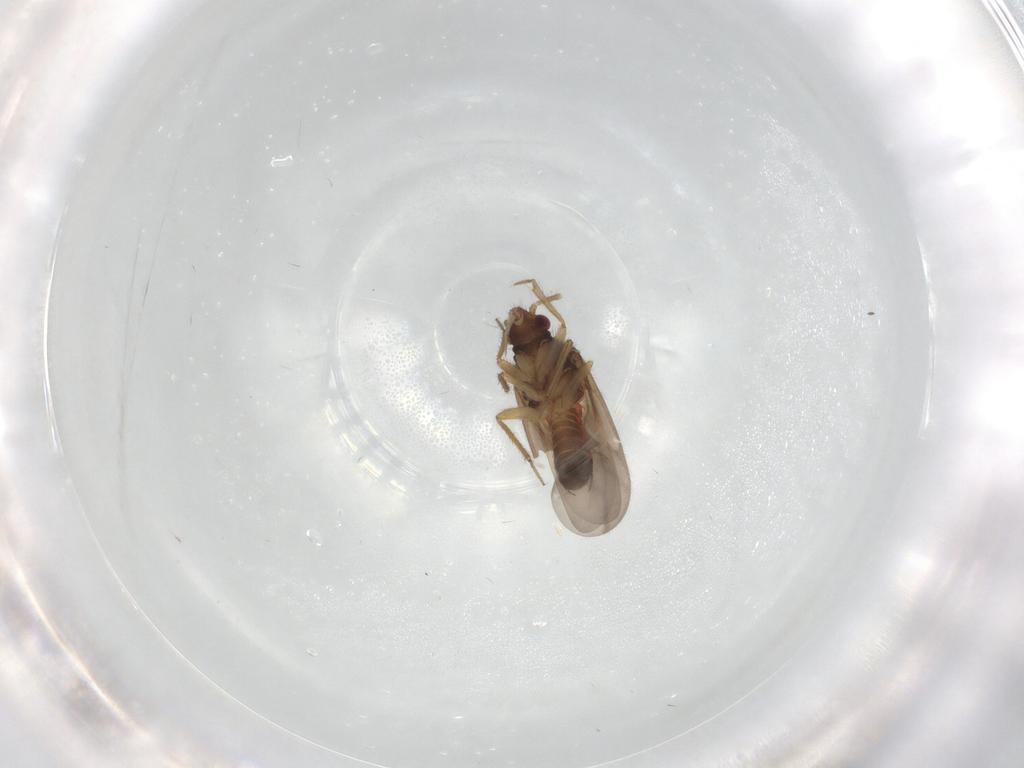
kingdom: Animalia
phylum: Arthropoda
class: Insecta
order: Hemiptera
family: Ceratocombidae
